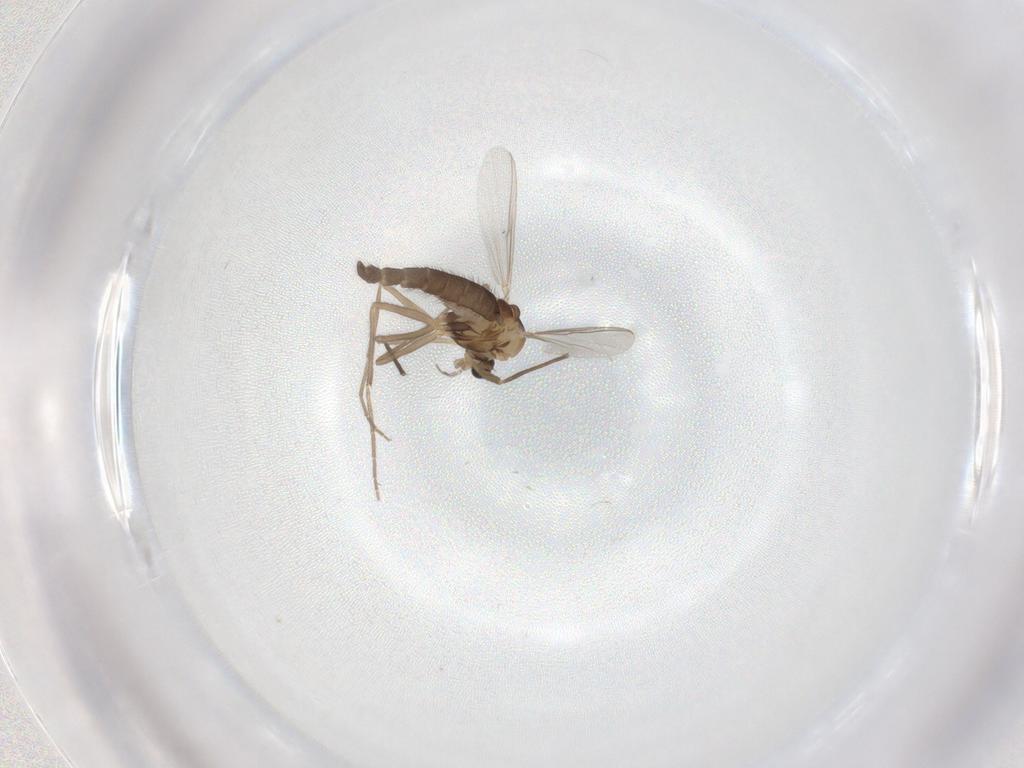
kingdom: Animalia
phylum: Arthropoda
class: Insecta
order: Diptera
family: Chironomidae
